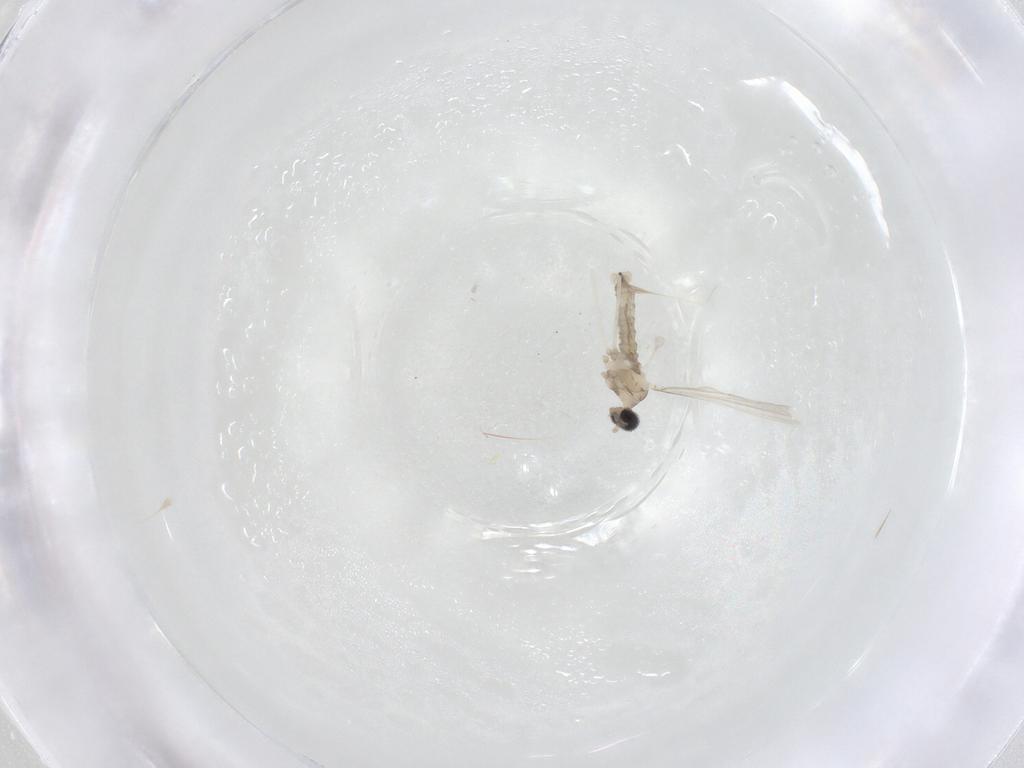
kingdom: Animalia
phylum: Arthropoda
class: Insecta
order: Diptera
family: Cecidomyiidae
